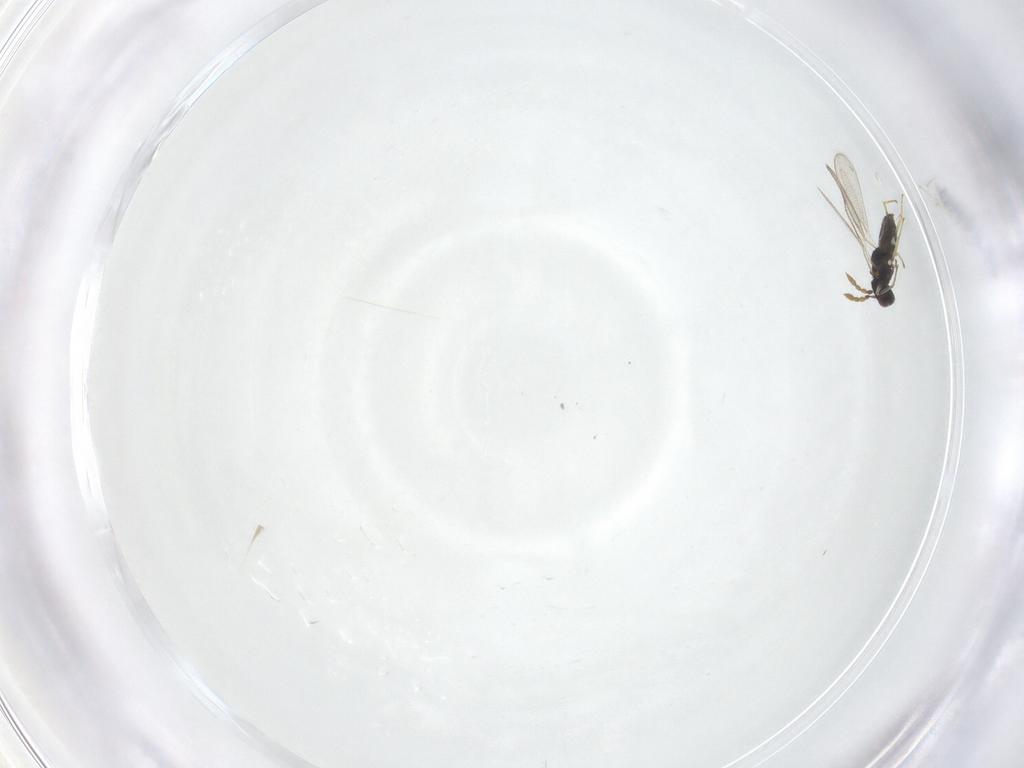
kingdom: Animalia
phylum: Arthropoda
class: Insecta
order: Hymenoptera
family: Eulophidae
